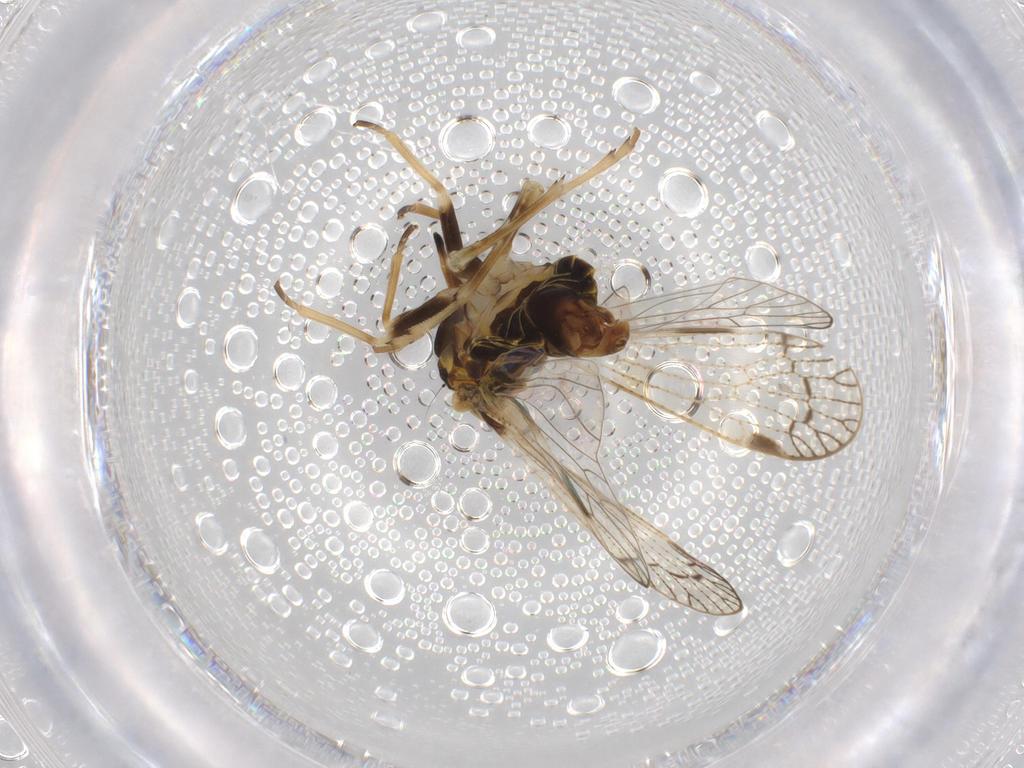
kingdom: Animalia
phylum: Arthropoda
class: Insecta
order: Hemiptera
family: Cixiidae
